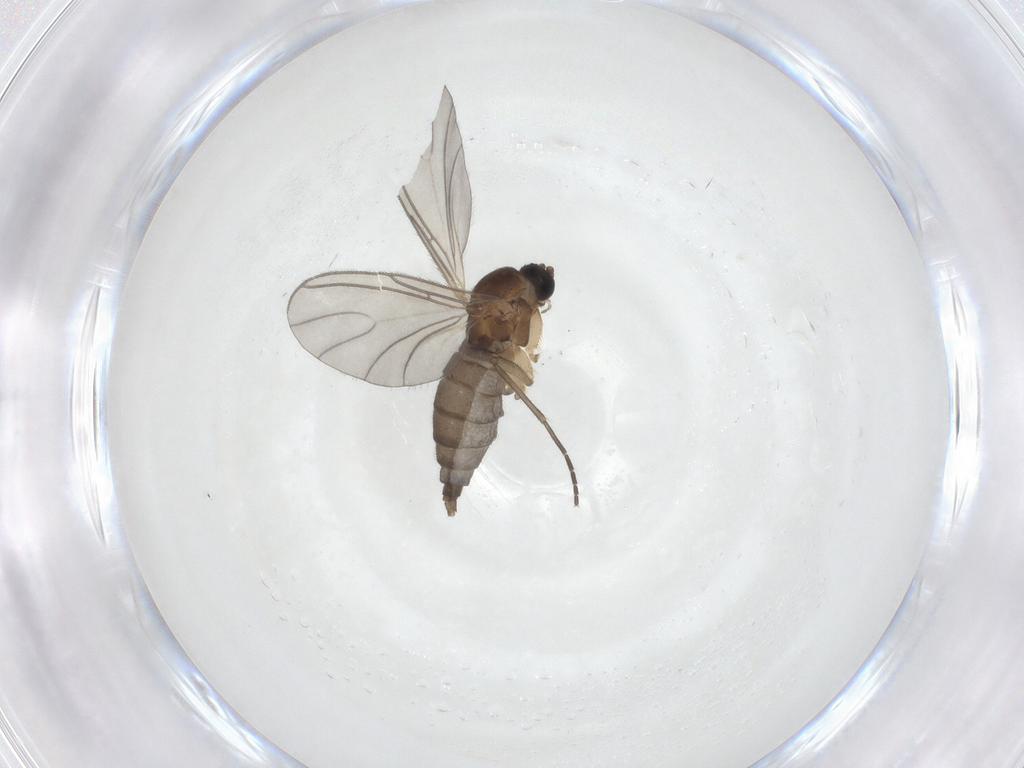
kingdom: Animalia
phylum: Arthropoda
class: Insecta
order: Diptera
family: Sciaridae
